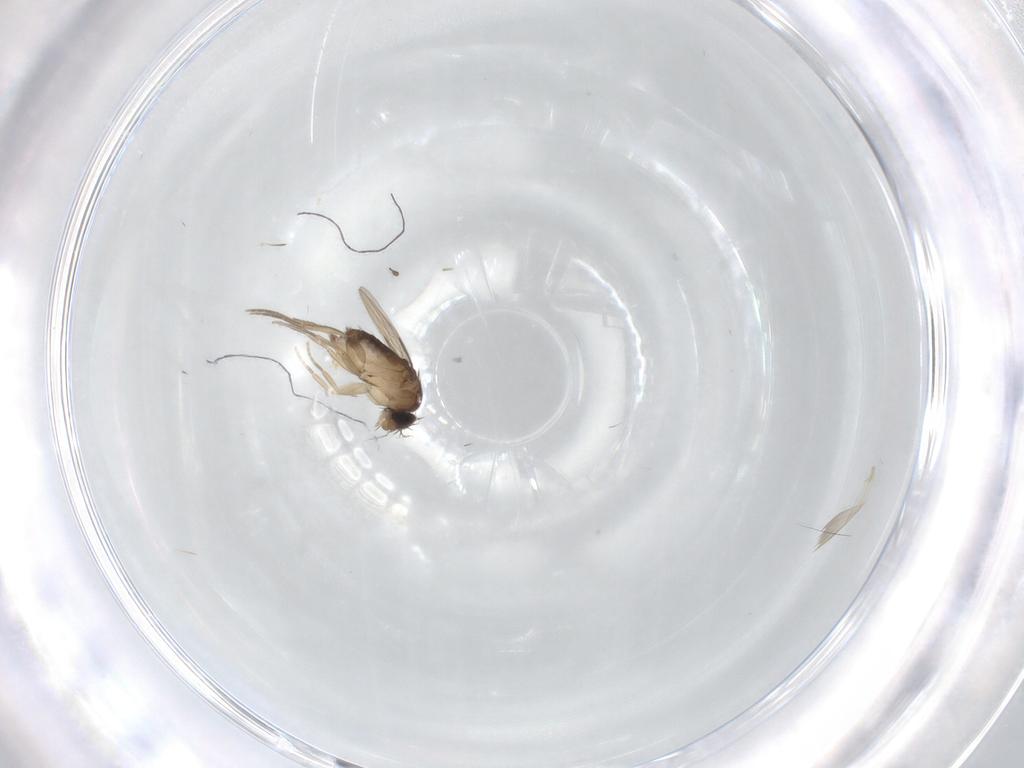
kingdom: Animalia
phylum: Arthropoda
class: Insecta
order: Diptera
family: Phoridae
